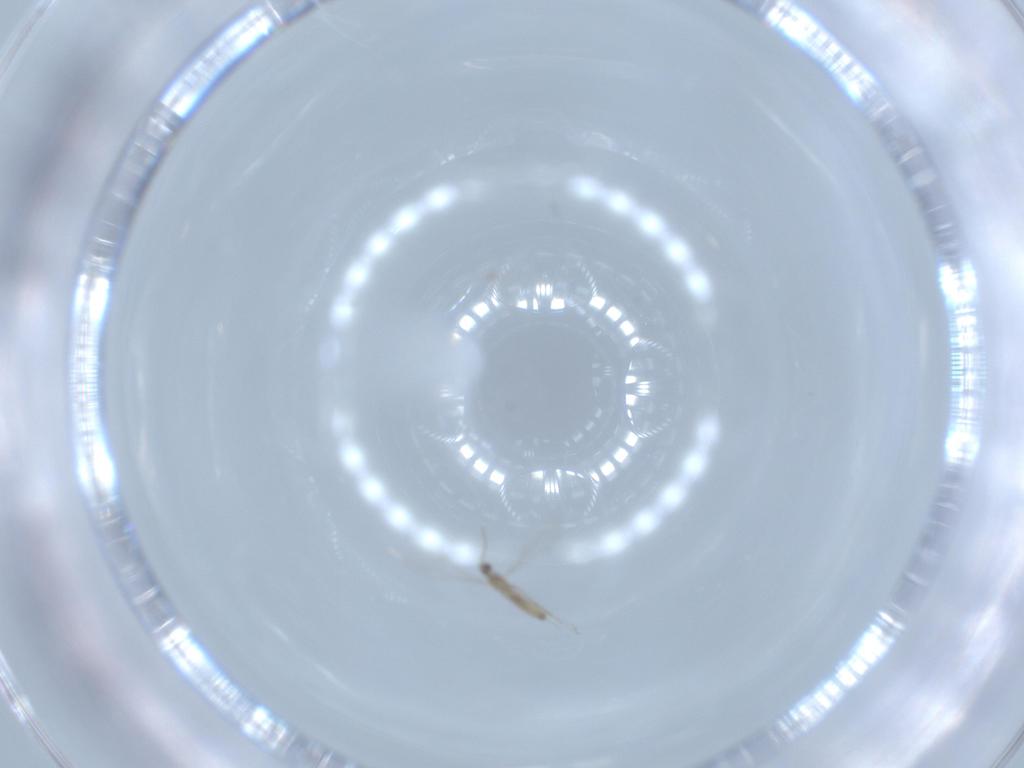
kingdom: Animalia
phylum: Arthropoda
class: Insecta
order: Diptera
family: Cecidomyiidae
